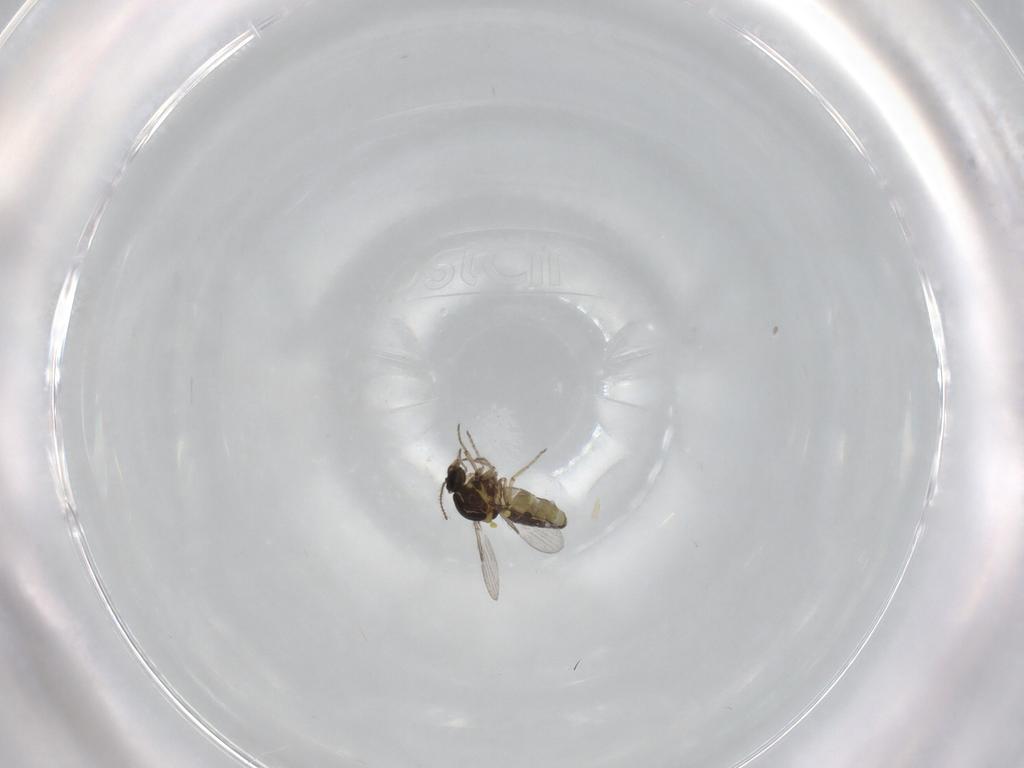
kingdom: Animalia
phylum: Arthropoda
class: Insecta
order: Diptera
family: Ceratopogonidae
